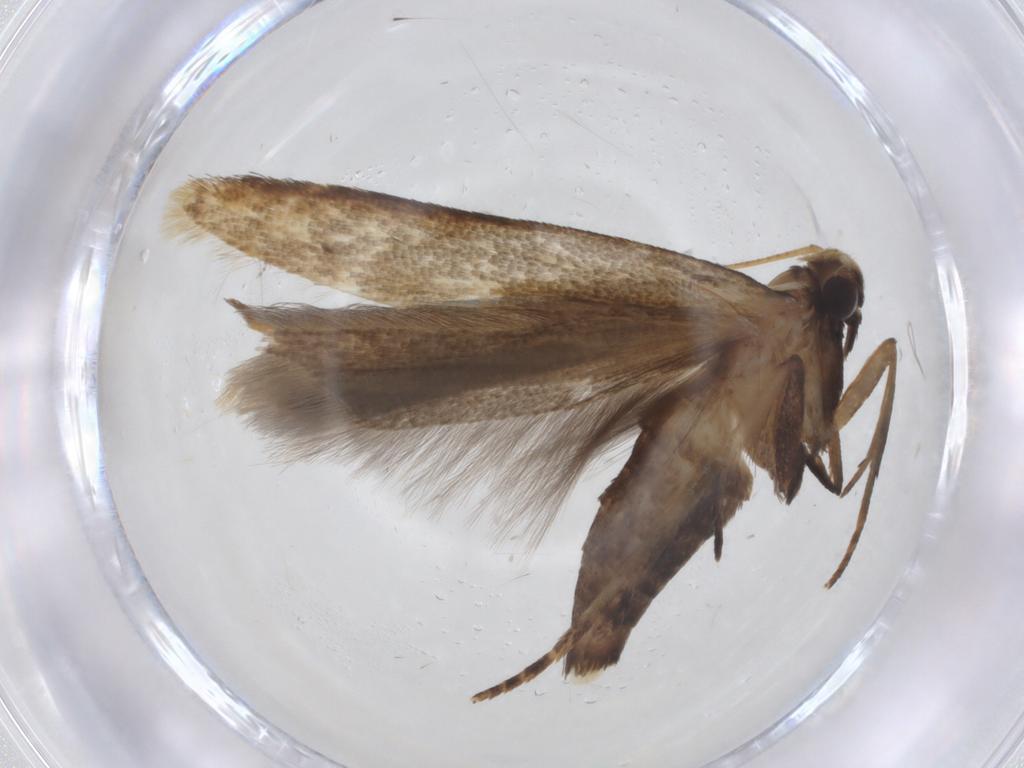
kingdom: Animalia
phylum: Arthropoda
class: Insecta
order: Lepidoptera
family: Gelechiidae
